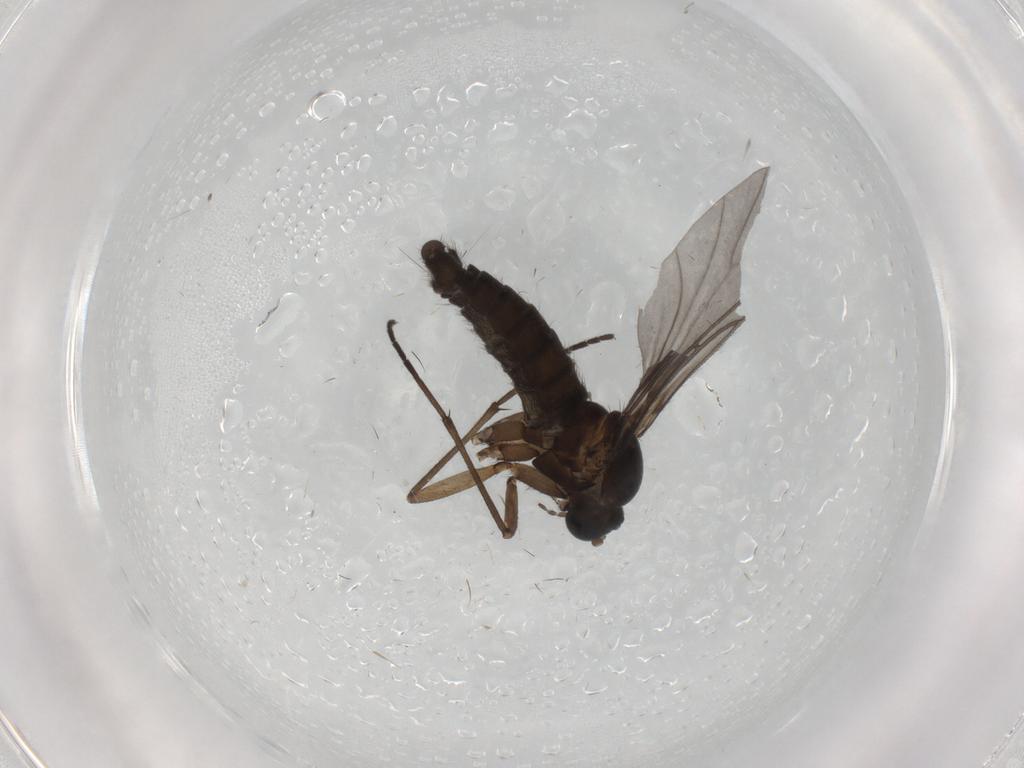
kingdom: Animalia
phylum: Arthropoda
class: Insecta
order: Diptera
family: Sciaridae
